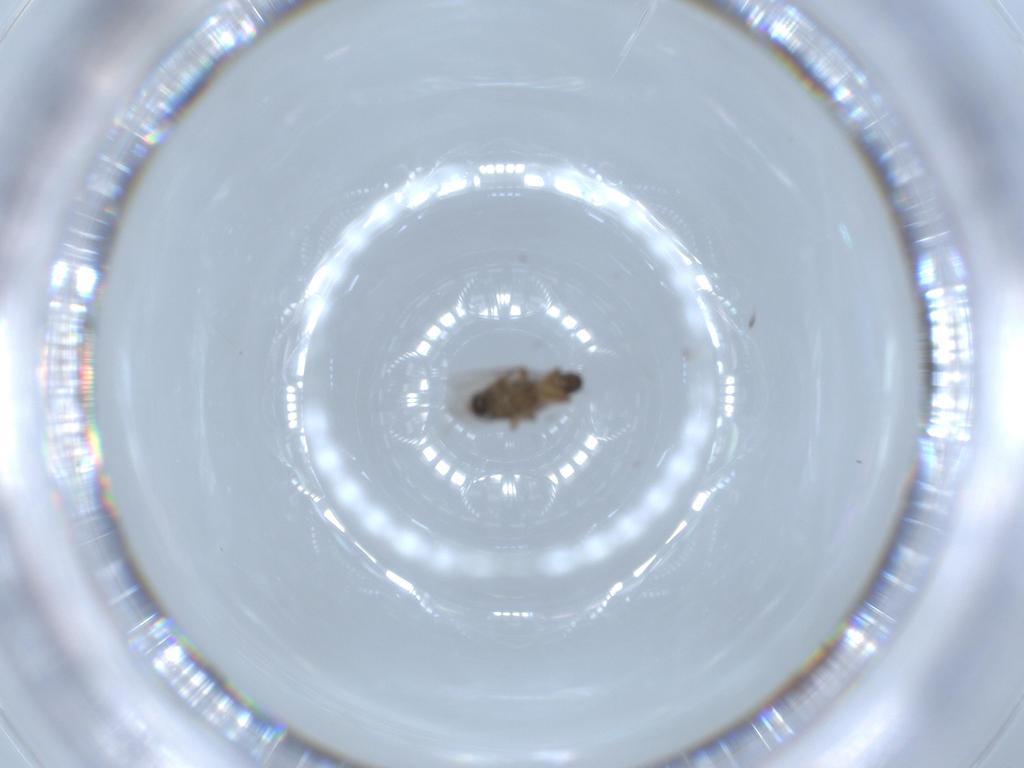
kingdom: Animalia
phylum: Arthropoda
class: Insecta
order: Diptera
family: Phoridae
